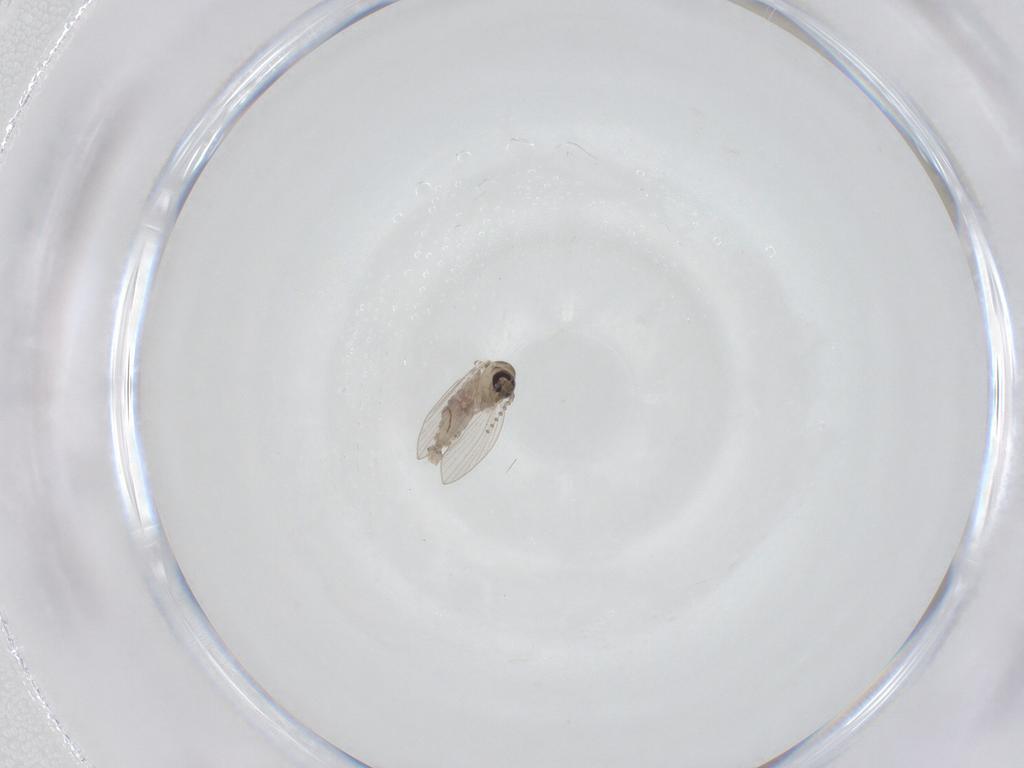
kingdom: Animalia
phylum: Arthropoda
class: Insecta
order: Diptera
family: Psychodidae
